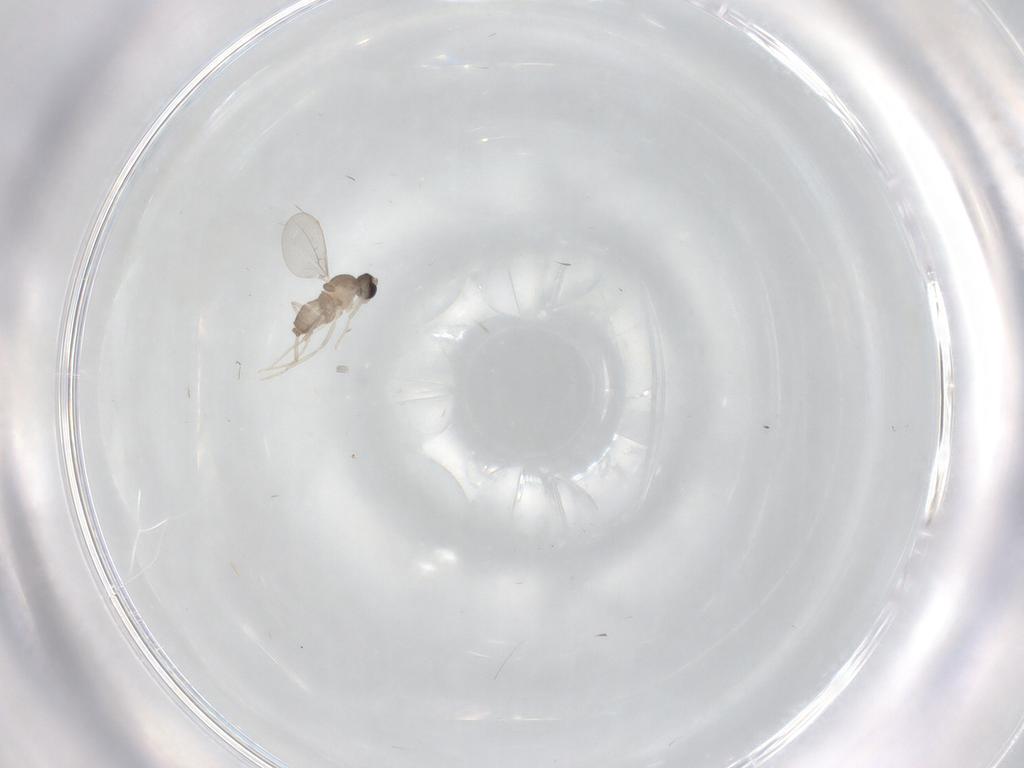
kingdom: Animalia
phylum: Arthropoda
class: Insecta
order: Diptera
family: Cecidomyiidae
